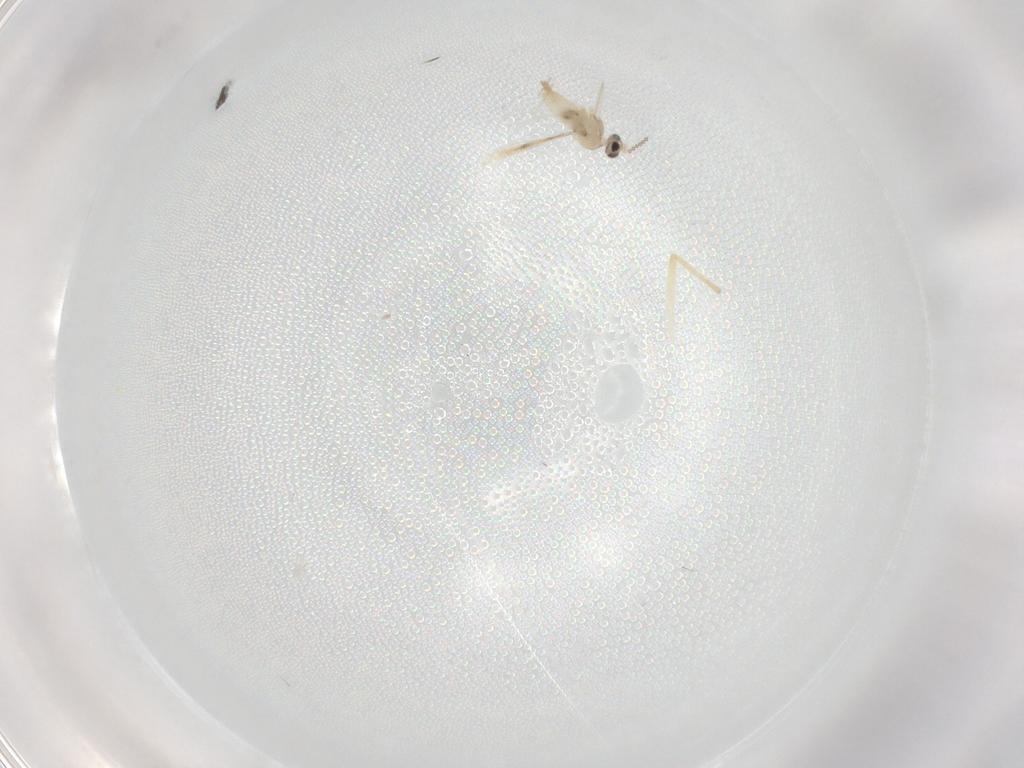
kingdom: Animalia
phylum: Arthropoda
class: Insecta
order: Diptera
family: Cecidomyiidae
